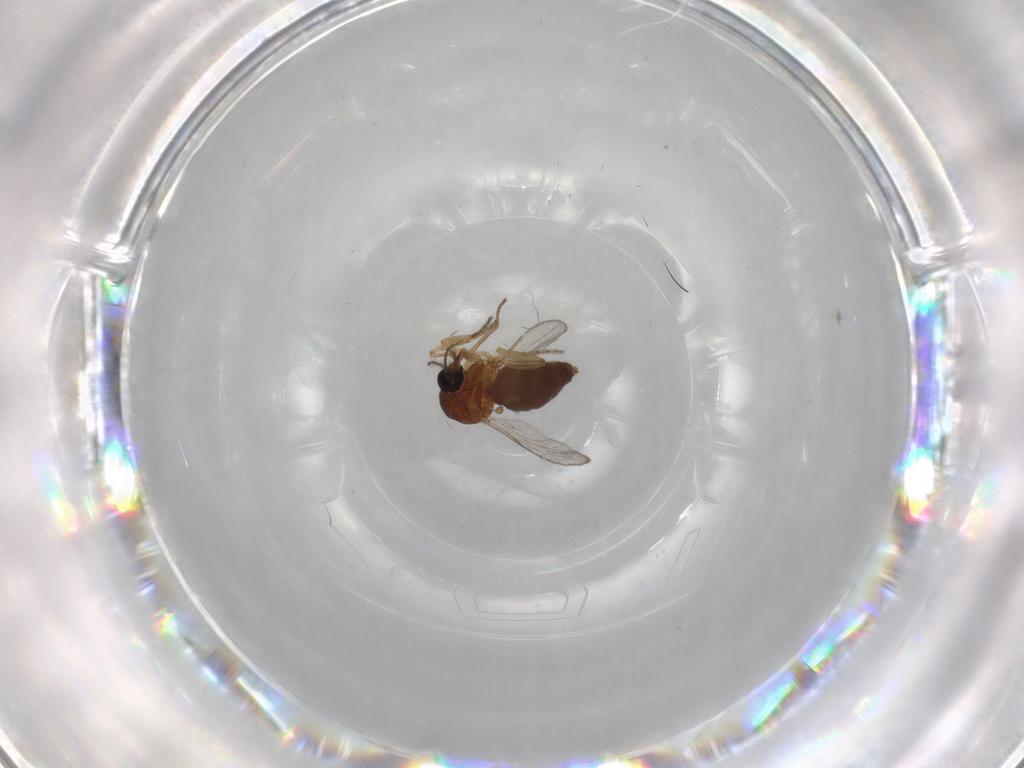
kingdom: Animalia
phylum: Arthropoda
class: Insecta
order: Diptera
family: Ceratopogonidae
